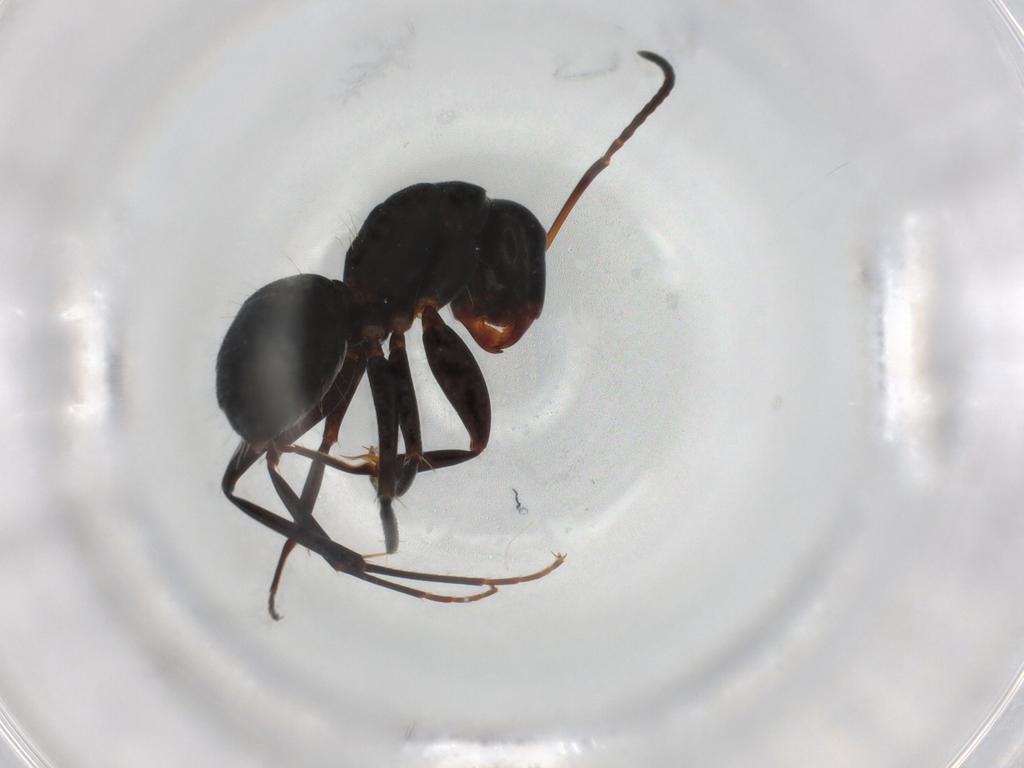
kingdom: Animalia
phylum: Arthropoda
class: Insecta
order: Hymenoptera
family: Formicidae
